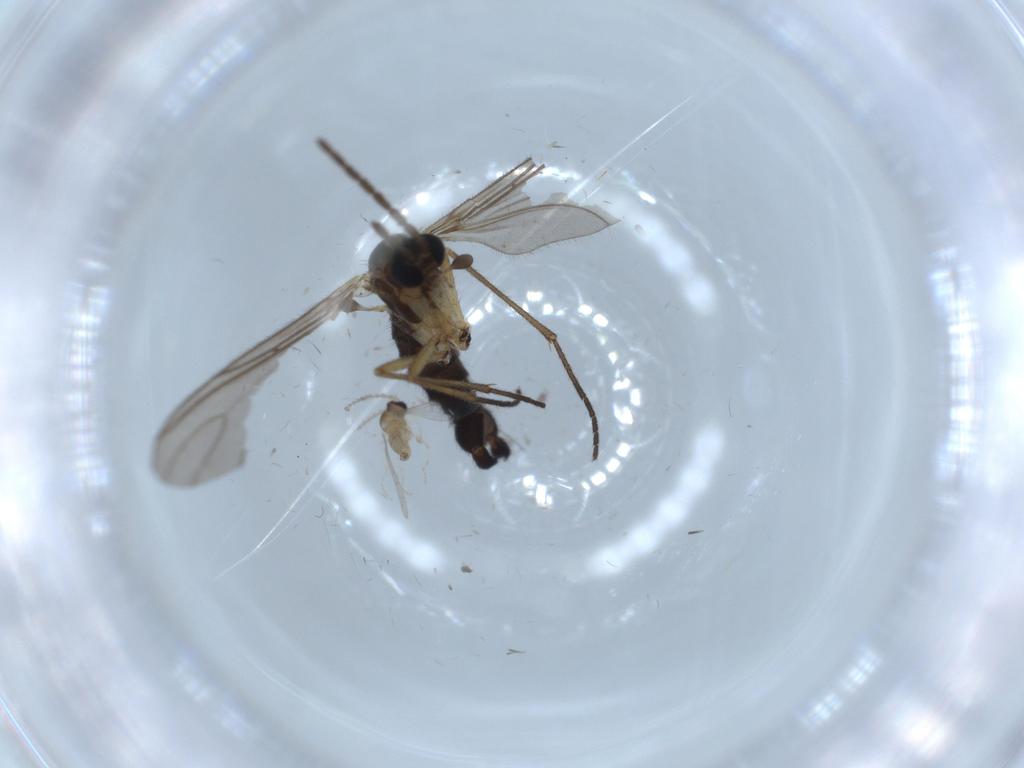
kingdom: Animalia
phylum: Arthropoda
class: Insecta
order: Diptera
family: Sciaridae
